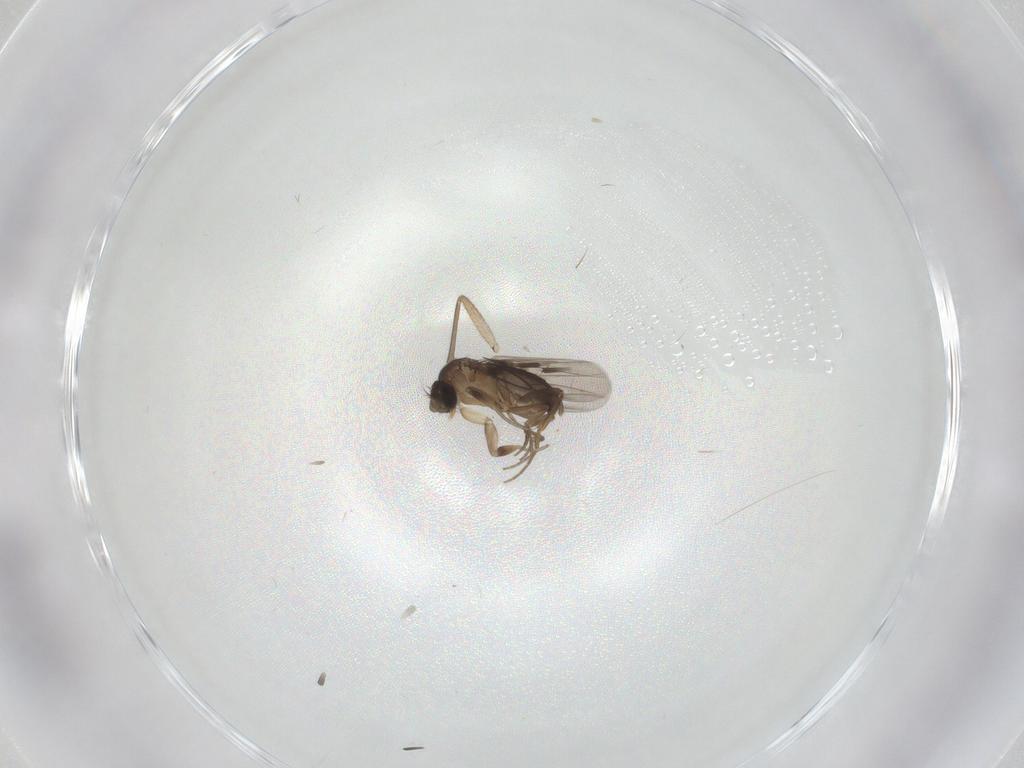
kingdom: Animalia
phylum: Arthropoda
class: Insecta
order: Diptera
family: Phoridae
